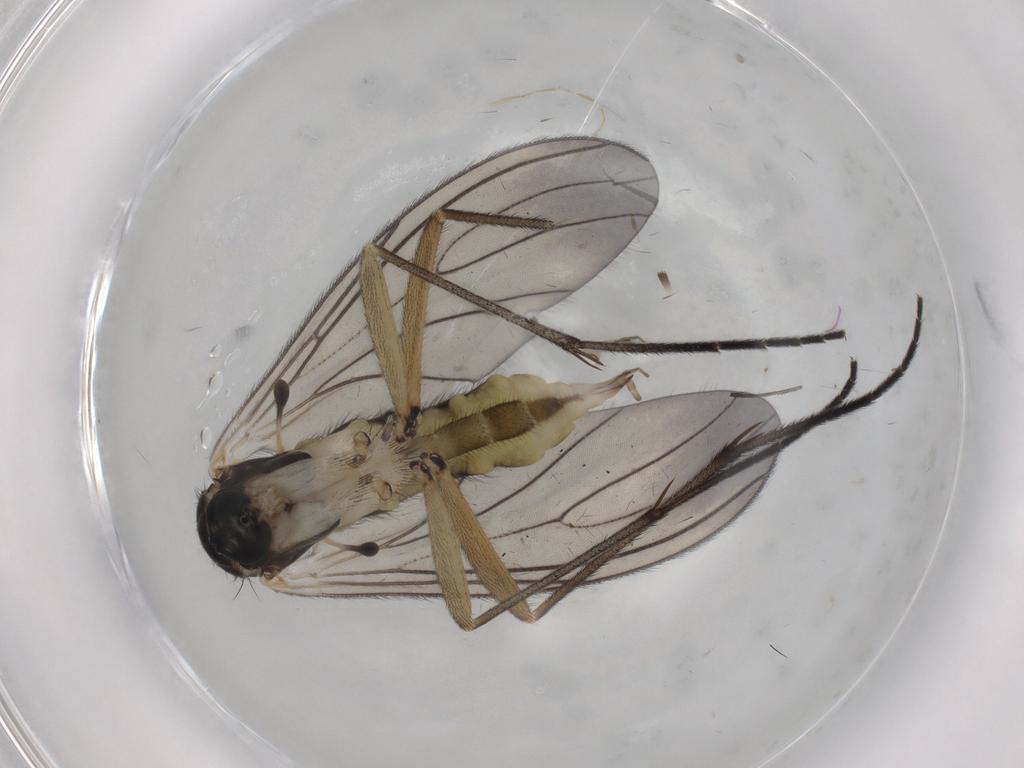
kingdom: Animalia
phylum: Arthropoda
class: Insecta
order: Diptera
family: Sciaridae
